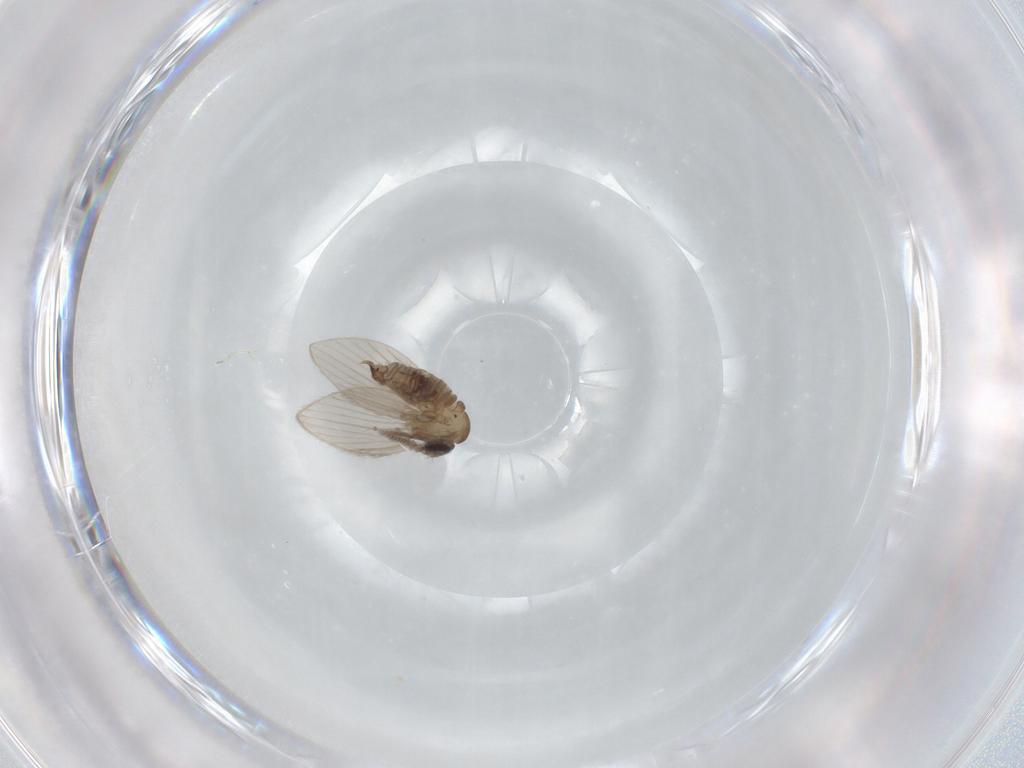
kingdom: Animalia
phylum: Arthropoda
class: Insecta
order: Diptera
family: Psychodidae
